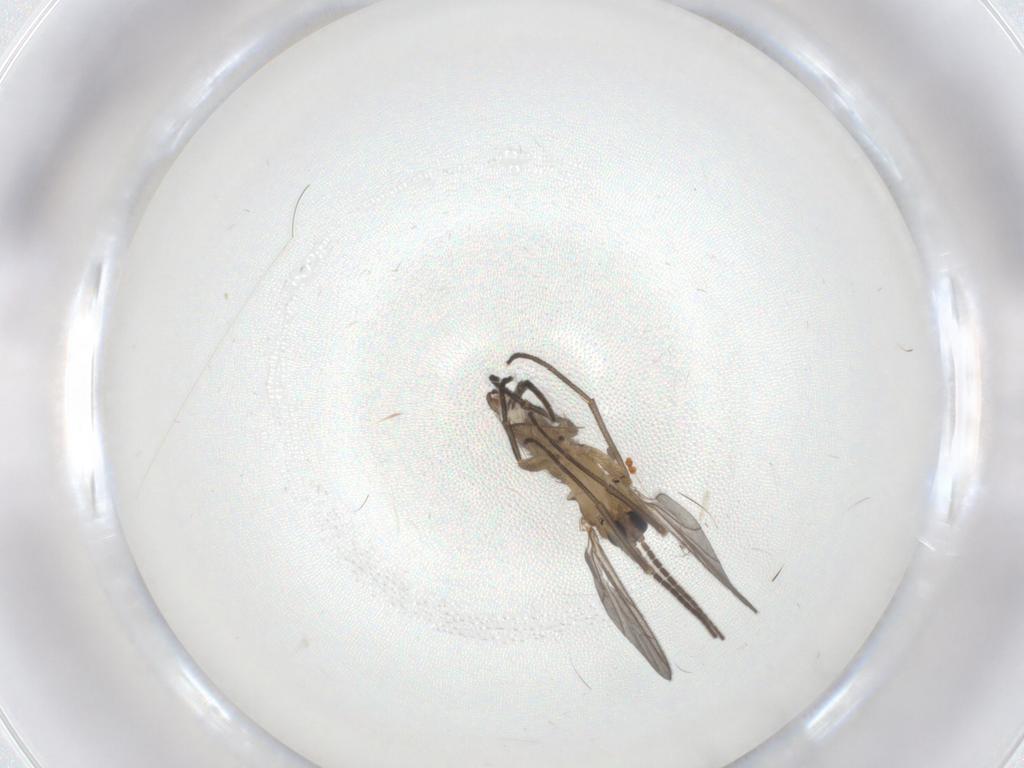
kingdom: Animalia
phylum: Arthropoda
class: Insecta
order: Diptera
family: Sciaridae
